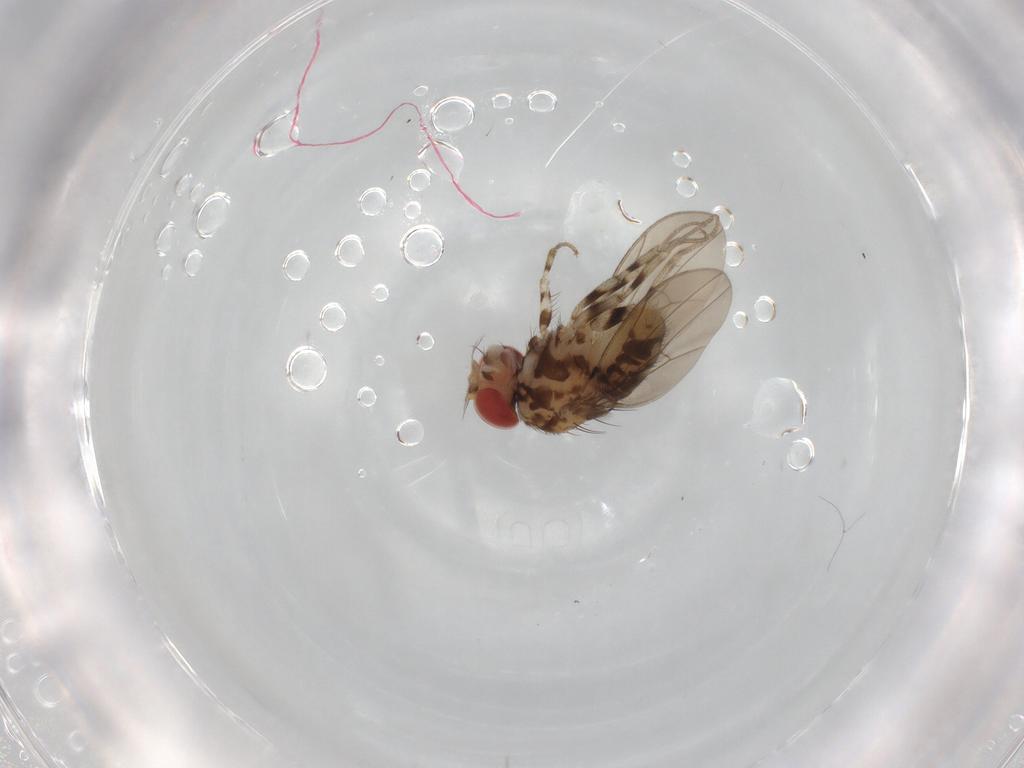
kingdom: Animalia
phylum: Arthropoda
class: Insecta
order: Diptera
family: Drosophilidae
